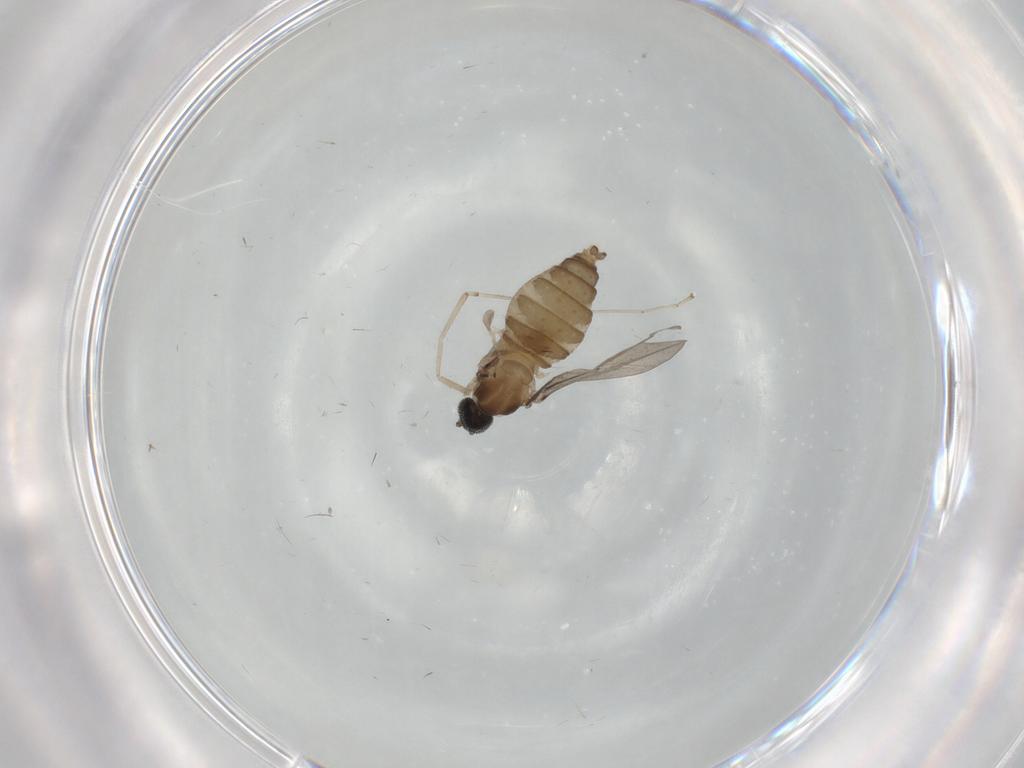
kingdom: Animalia
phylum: Arthropoda
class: Insecta
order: Diptera
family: Cecidomyiidae
